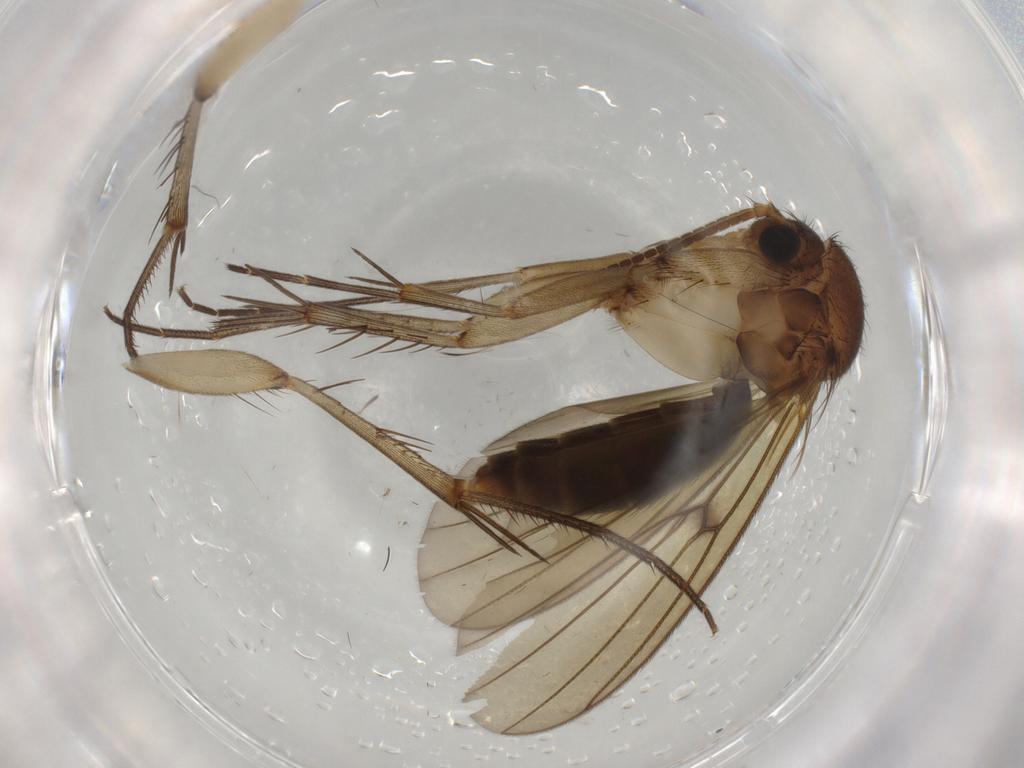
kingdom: Animalia
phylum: Arthropoda
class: Insecta
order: Diptera
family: Mycetophilidae
